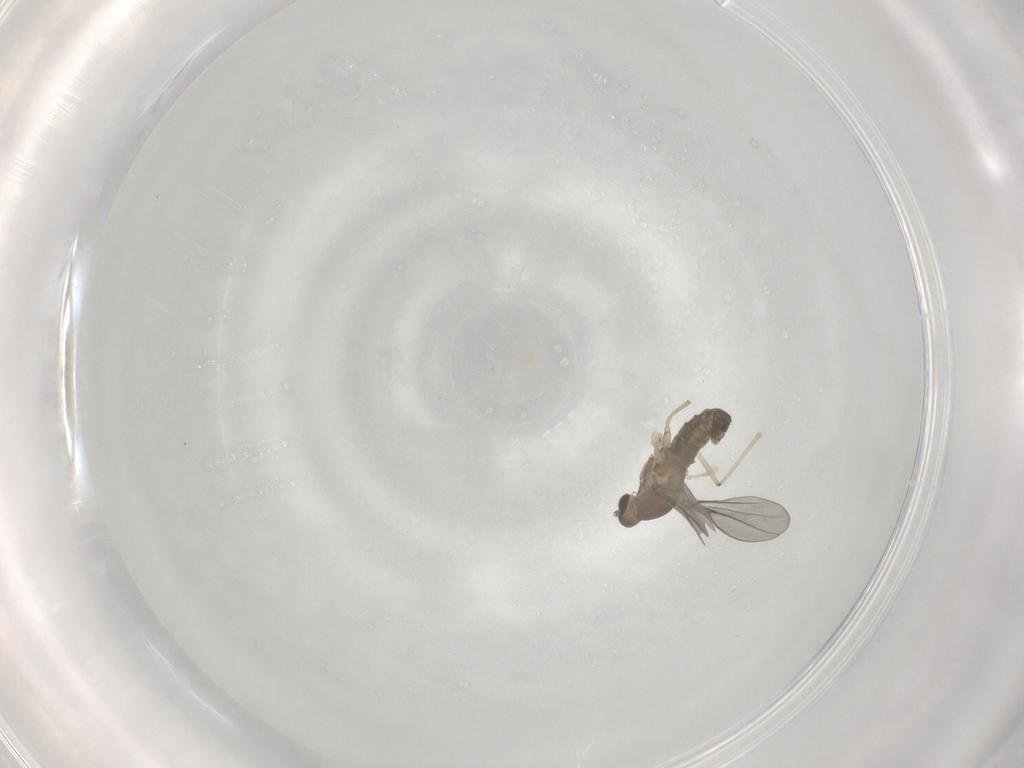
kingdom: Animalia
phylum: Arthropoda
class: Insecta
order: Diptera
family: Cecidomyiidae
